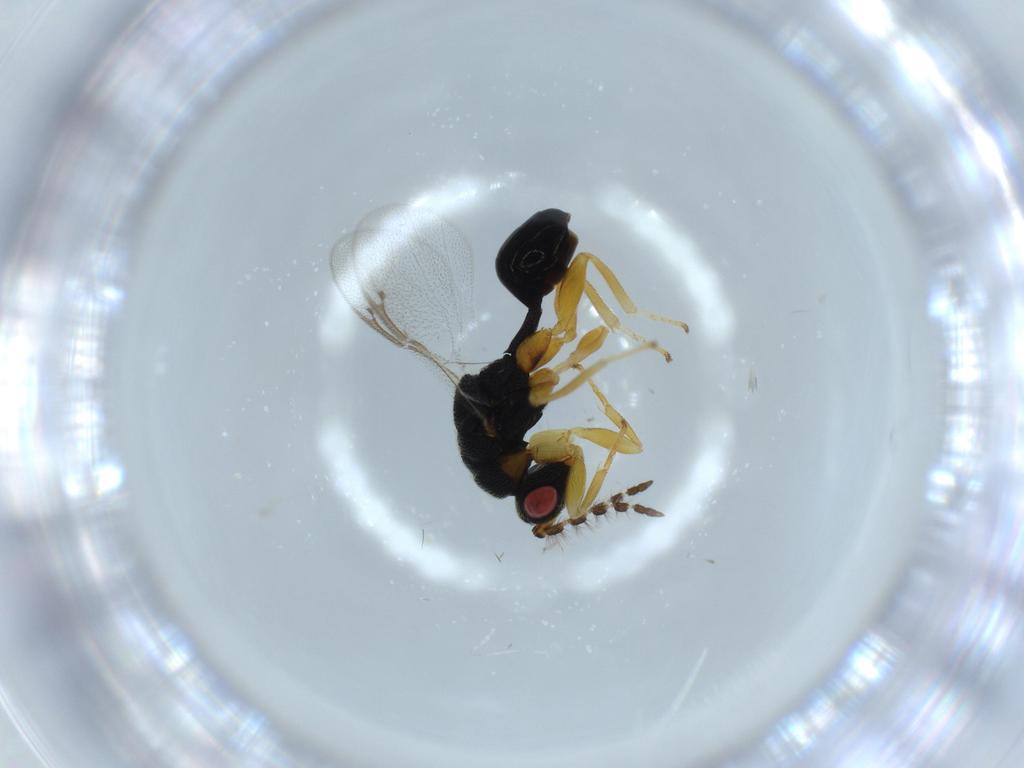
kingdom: Animalia
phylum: Arthropoda
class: Insecta
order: Hymenoptera
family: Eurytomidae
